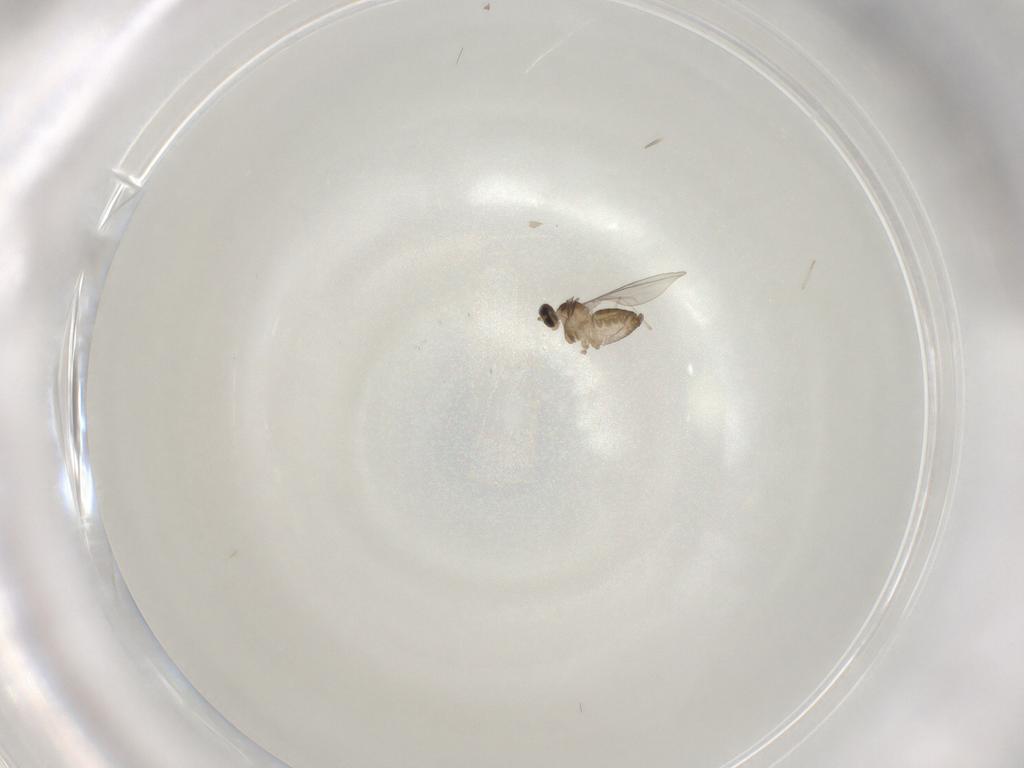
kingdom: Animalia
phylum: Arthropoda
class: Insecta
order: Diptera
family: Cecidomyiidae
